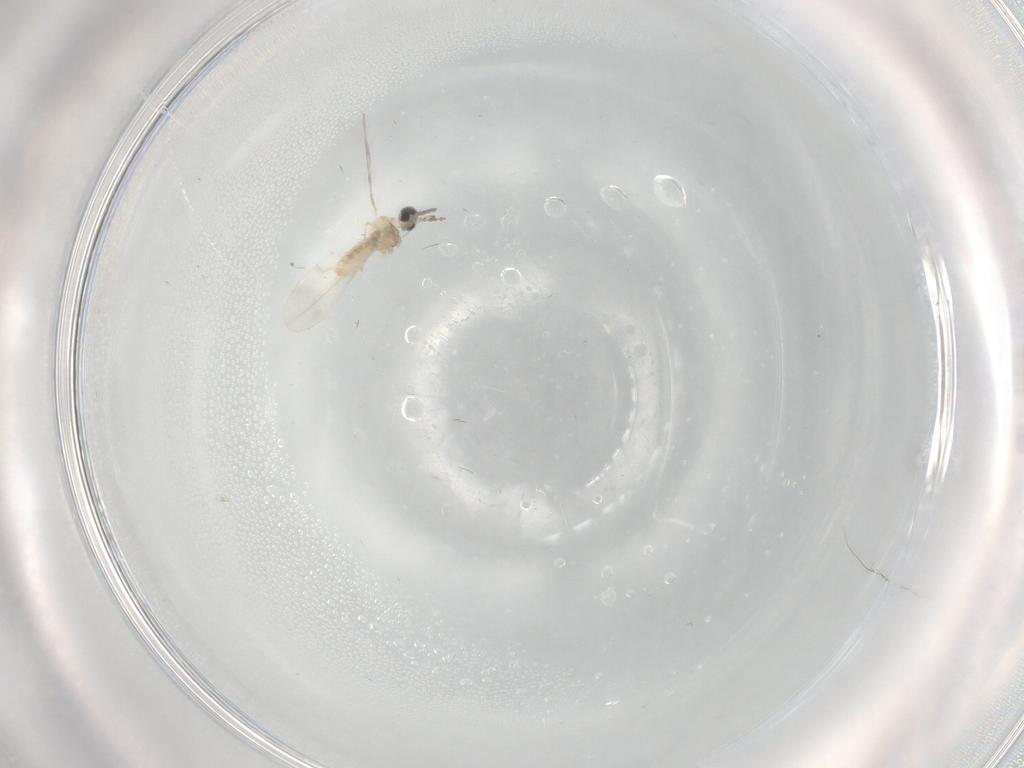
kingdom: Animalia
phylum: Arthropoda
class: Insecta
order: Diptera
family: Cecidomyiidae
